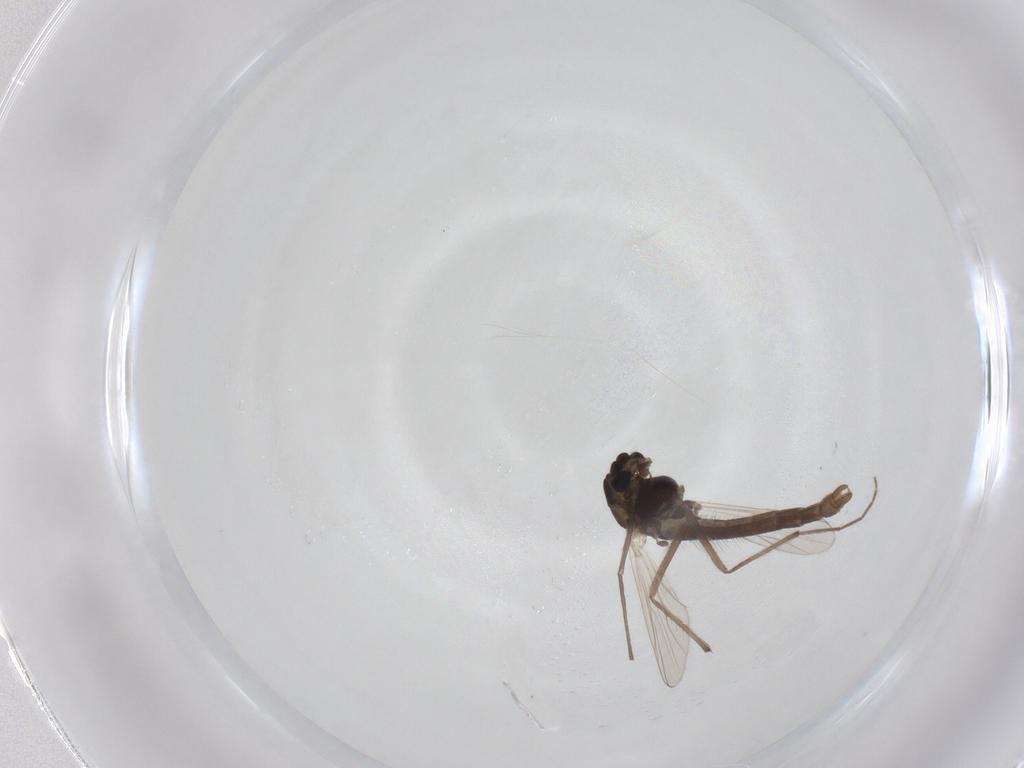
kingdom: Animalia
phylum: Arthropoda
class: Insecta
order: Diptera
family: Chironomidae
